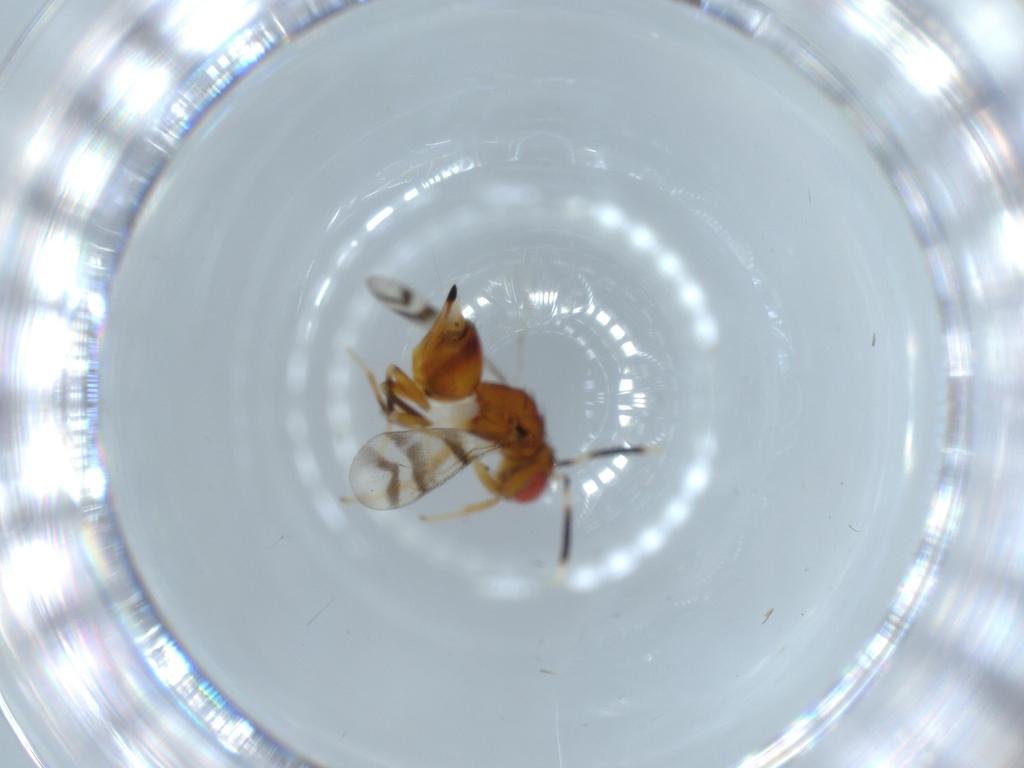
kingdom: Animalia
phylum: Arthropoda
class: Insecta
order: Hymenoptera
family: Diparidae
